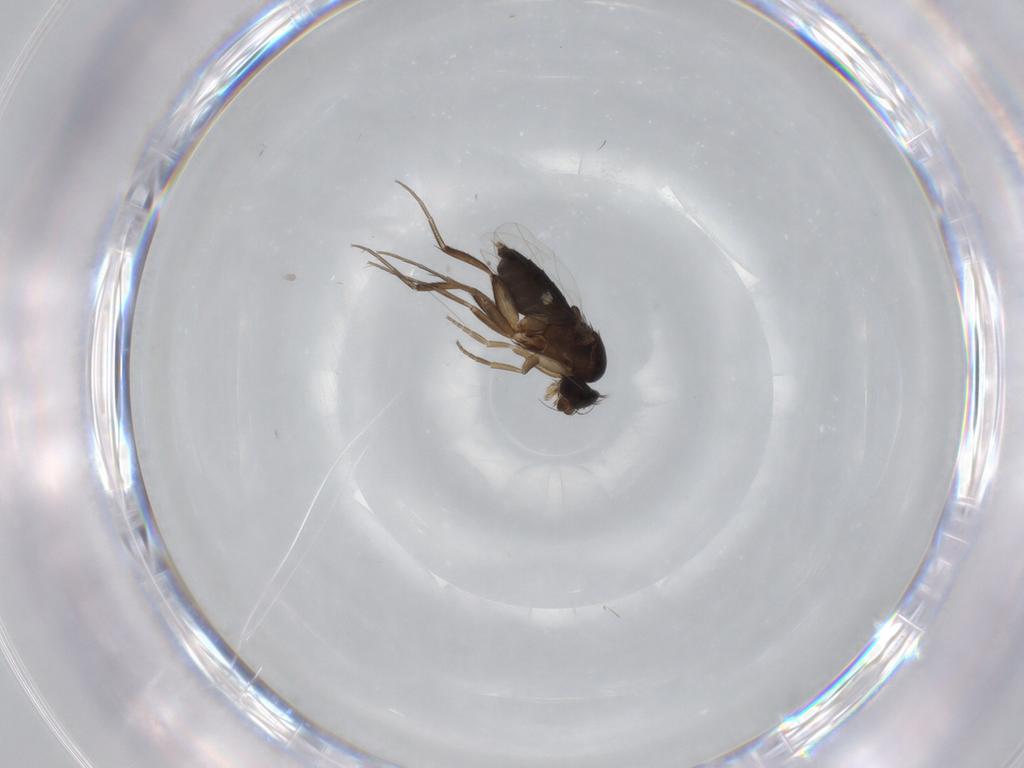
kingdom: Animalia
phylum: Arthropoda
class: Insecta
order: Diptera
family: Phoridae
